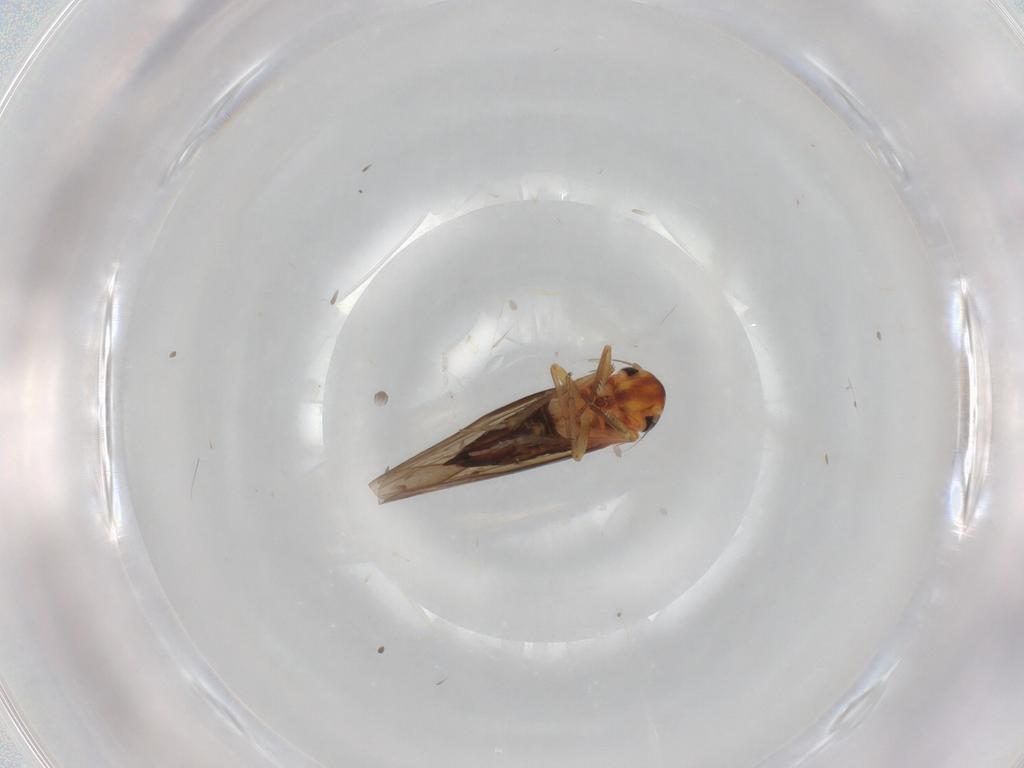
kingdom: Animalia
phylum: Arthropoda
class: Insecta
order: Hemiptera
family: Cicadellidae
